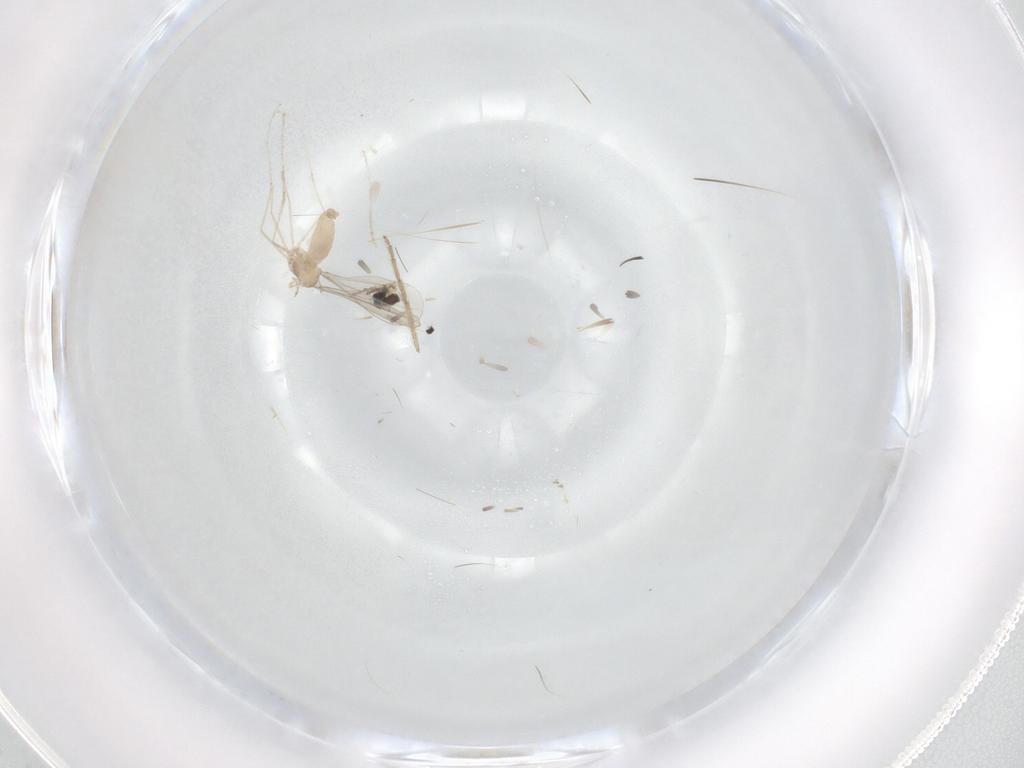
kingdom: Animalia
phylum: Arthropoda
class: Insecta
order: Diptera
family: Cecidomyiidae
